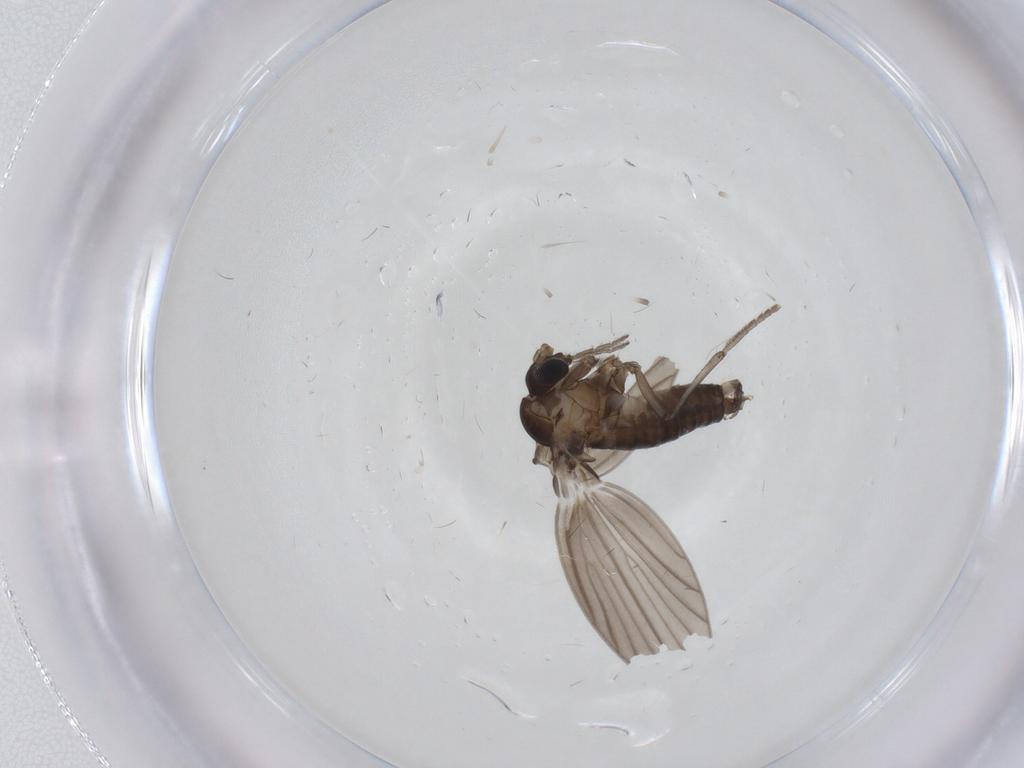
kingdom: Animalia
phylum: Arthropoda
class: Insecta
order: Diptera
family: Psychodidae
